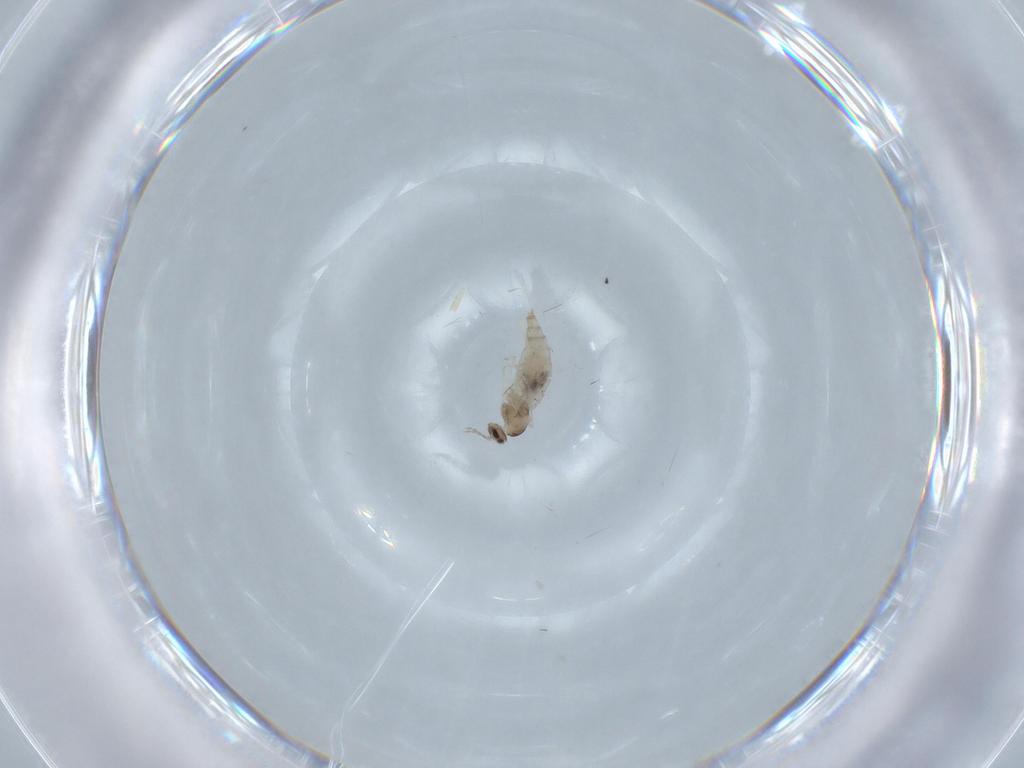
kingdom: Animalia
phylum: Arthropoda
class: Insecta
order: Diptera
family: Cecidomyiidae
